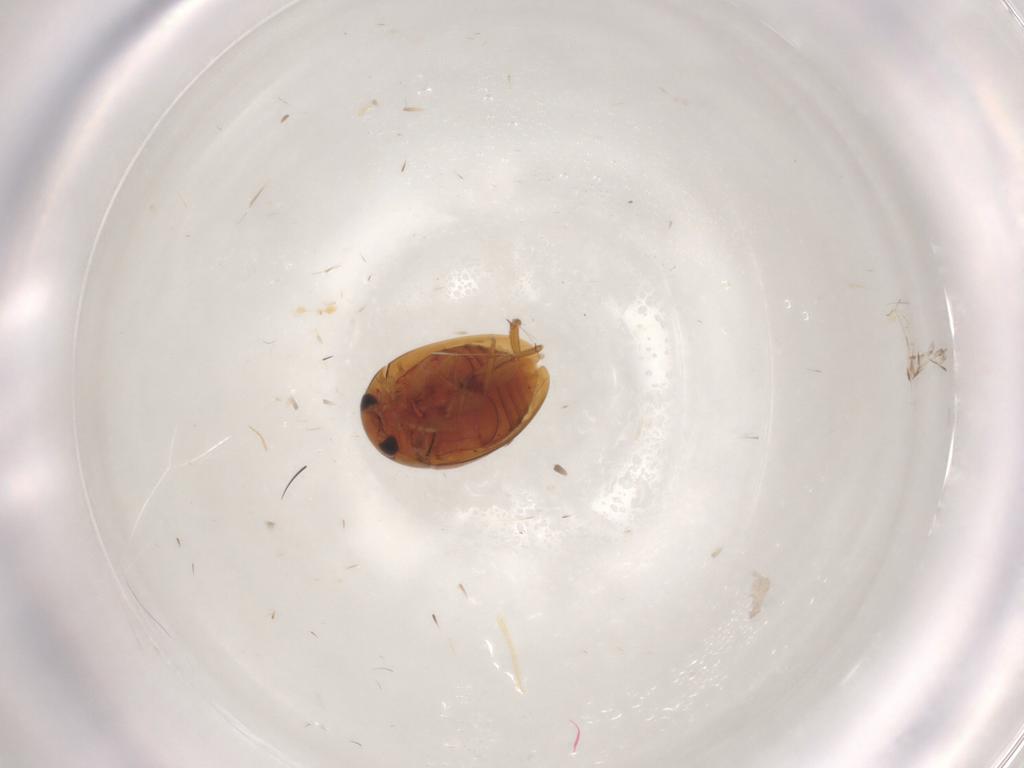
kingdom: Animalia
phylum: Arthropoda
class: Insecta
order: Coleoptera
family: Phalacridae
